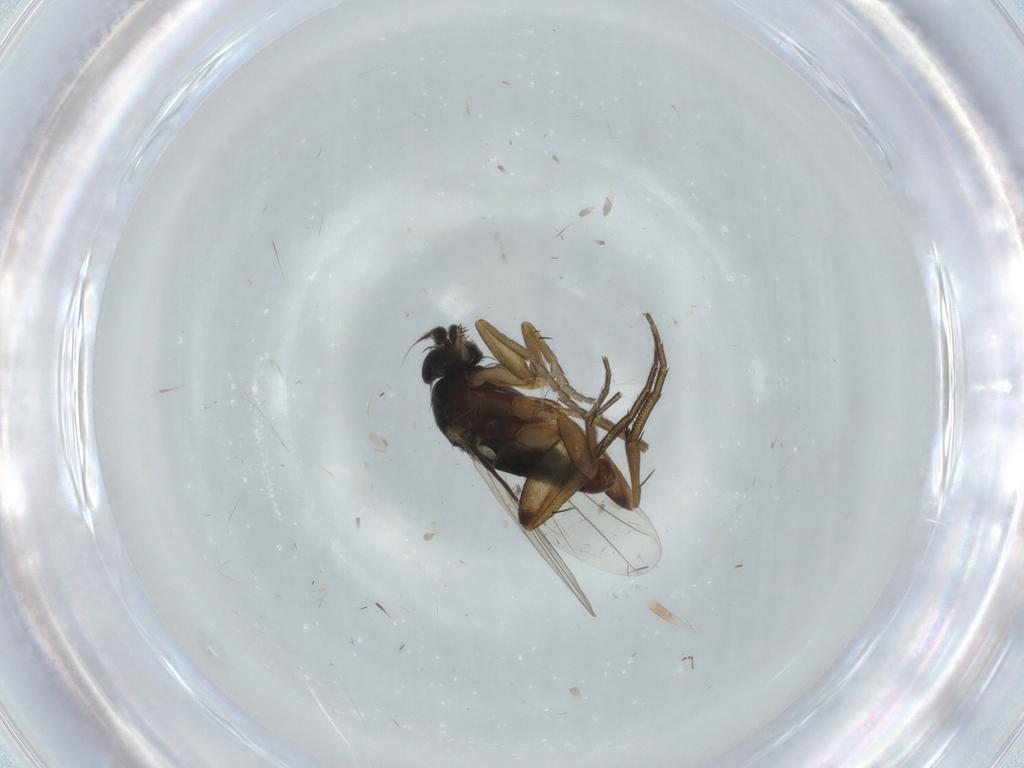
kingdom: Animalia
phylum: Arthropoda
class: Insecta
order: Diptera
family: Phoridae
